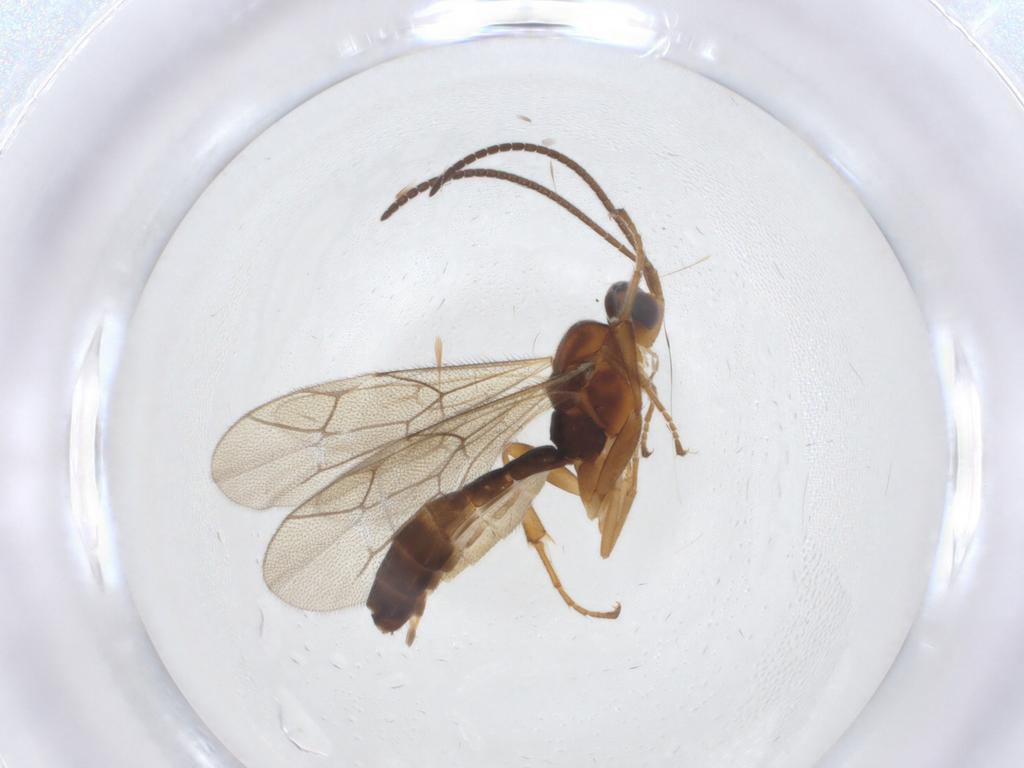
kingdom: Animalia
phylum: Arthropoda
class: Insecta
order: Hymenoptera
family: Ichneumonidae
